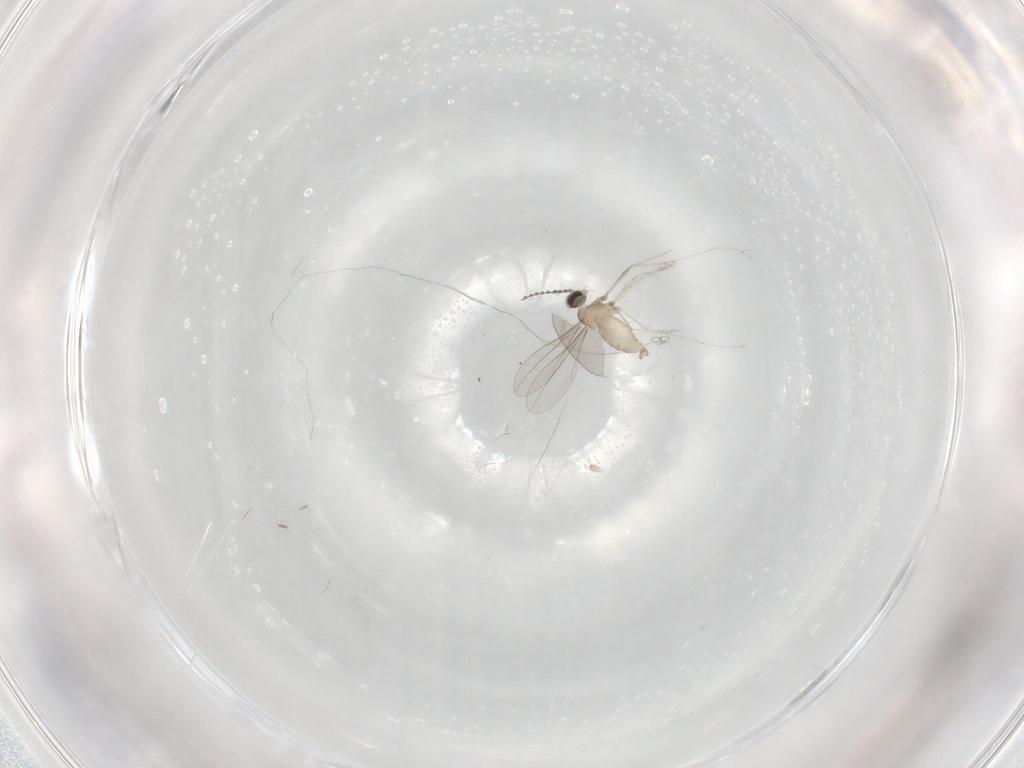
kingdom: Animalia
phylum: Arthropoda
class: Insecta
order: Diptera
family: Cecidomyiidae
